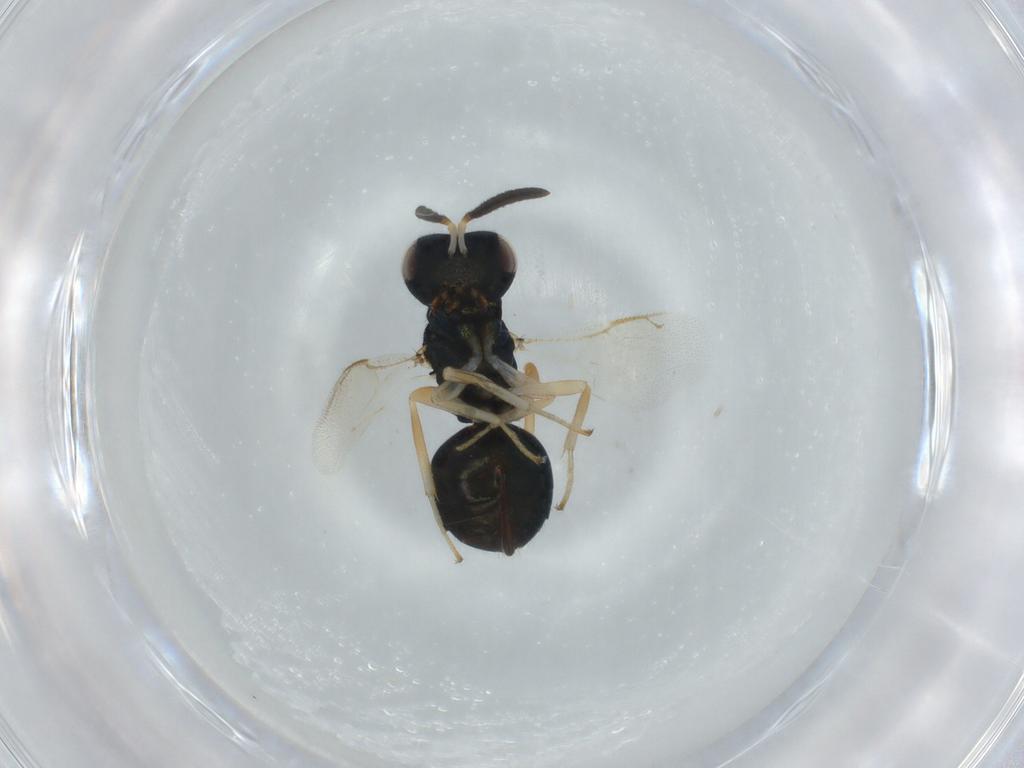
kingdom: Animalia
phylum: Arthropoda
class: Insecta
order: Hymenoptera
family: Pteromalidae
